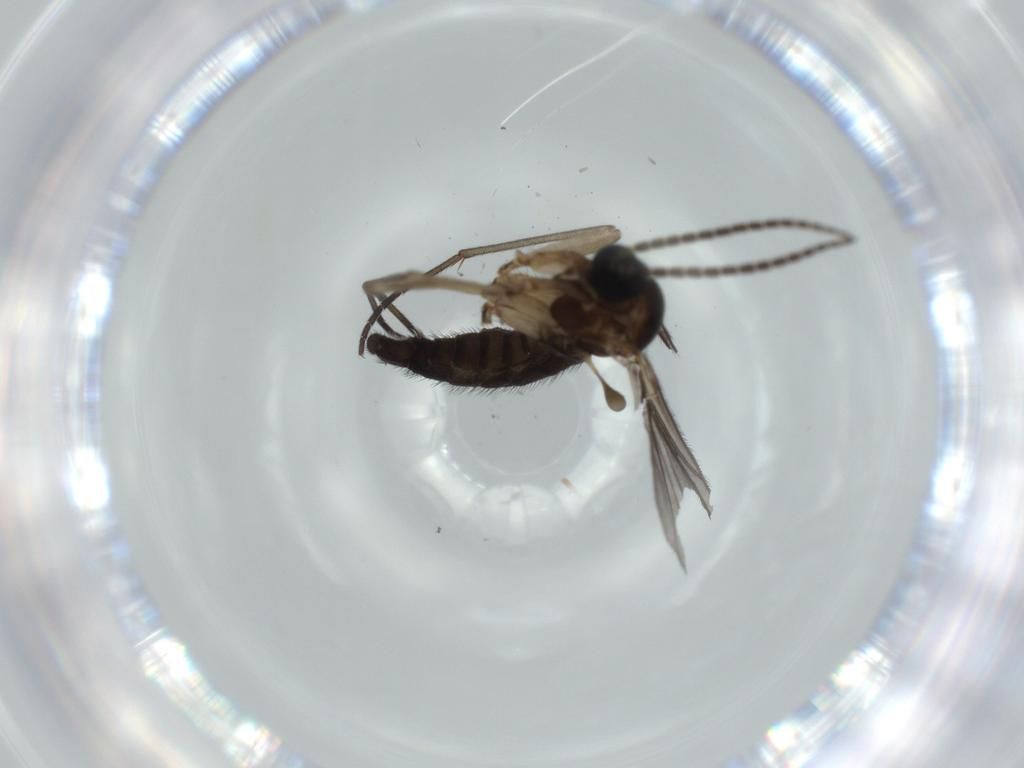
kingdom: Animalia
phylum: Arthropoda
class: Insecta
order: Diptera
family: Sciaridae
